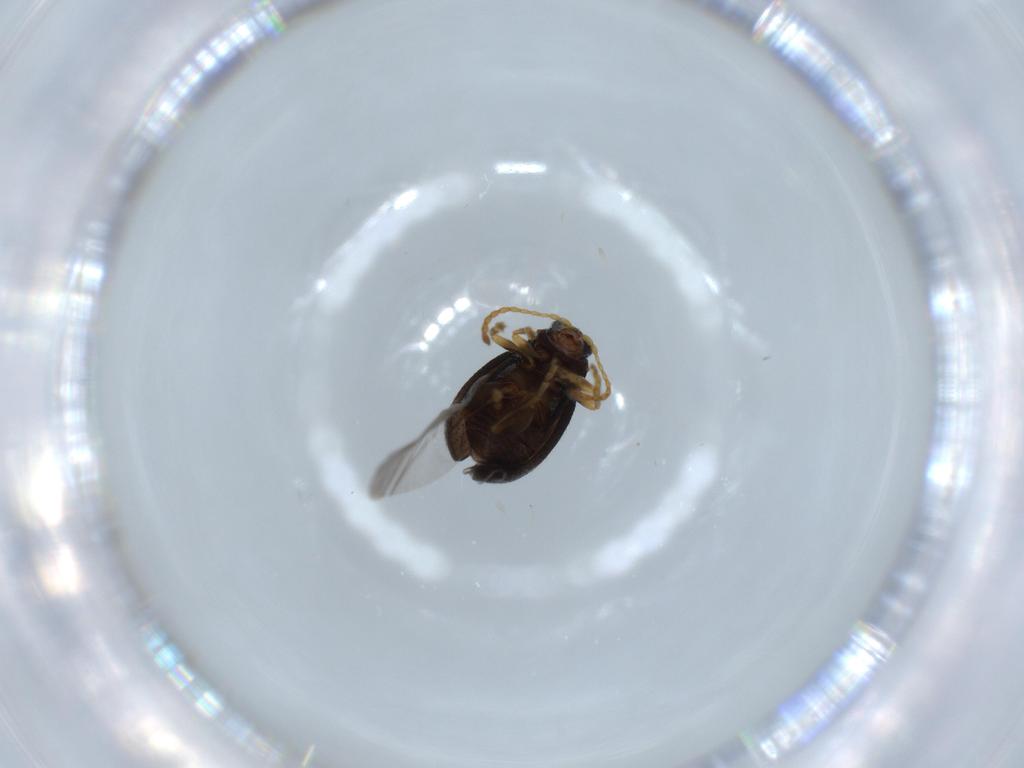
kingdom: Animalia
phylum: Arthropoda
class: Insecta
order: Coleoptera
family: Chrysomelidae
